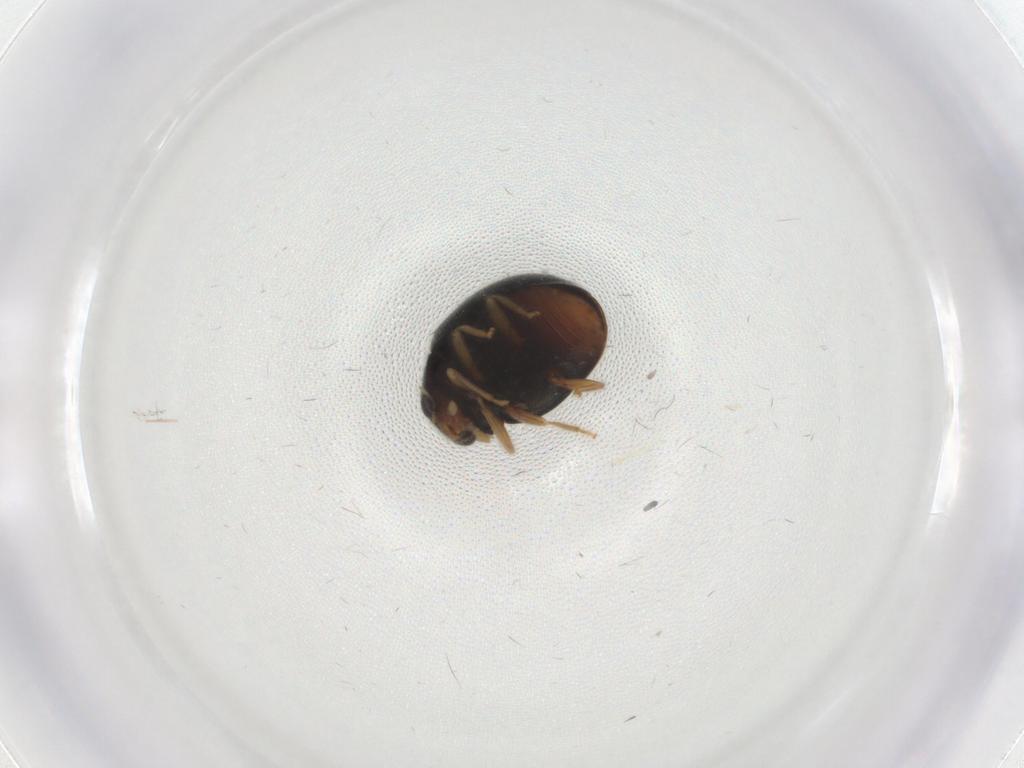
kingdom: Animalia
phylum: Arthropoda
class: Insecta
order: Coleoptera
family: Coccinellidae
